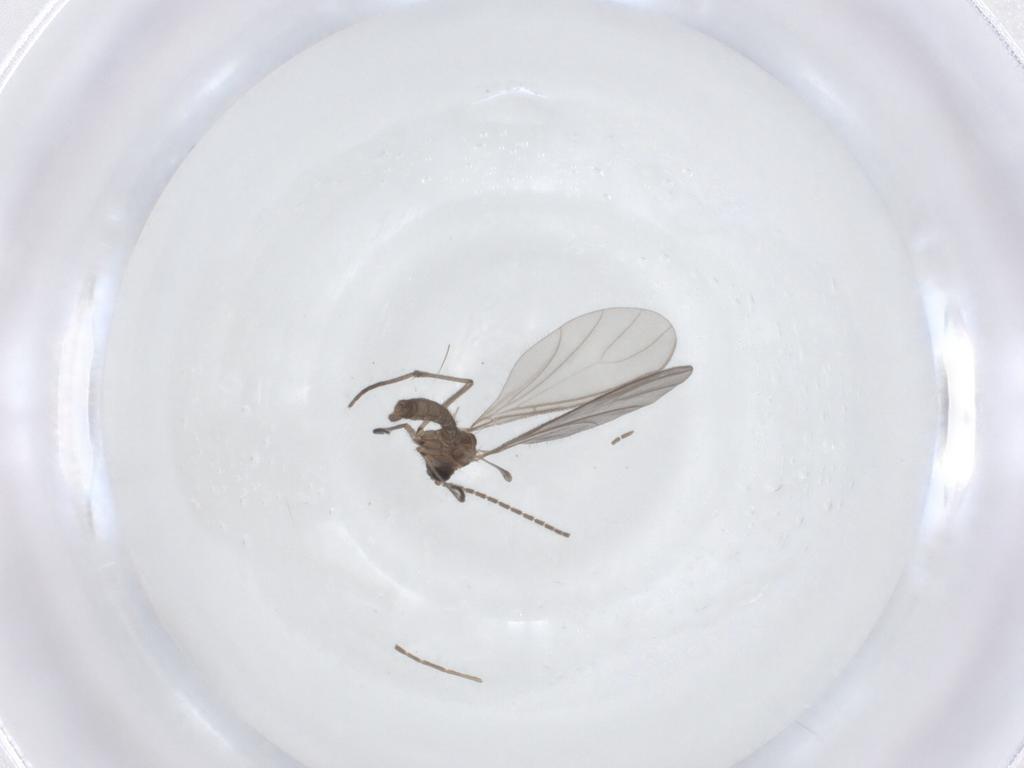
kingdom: Animalia
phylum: Arthropoda
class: Insecta
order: Diptera
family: Sciaridae
